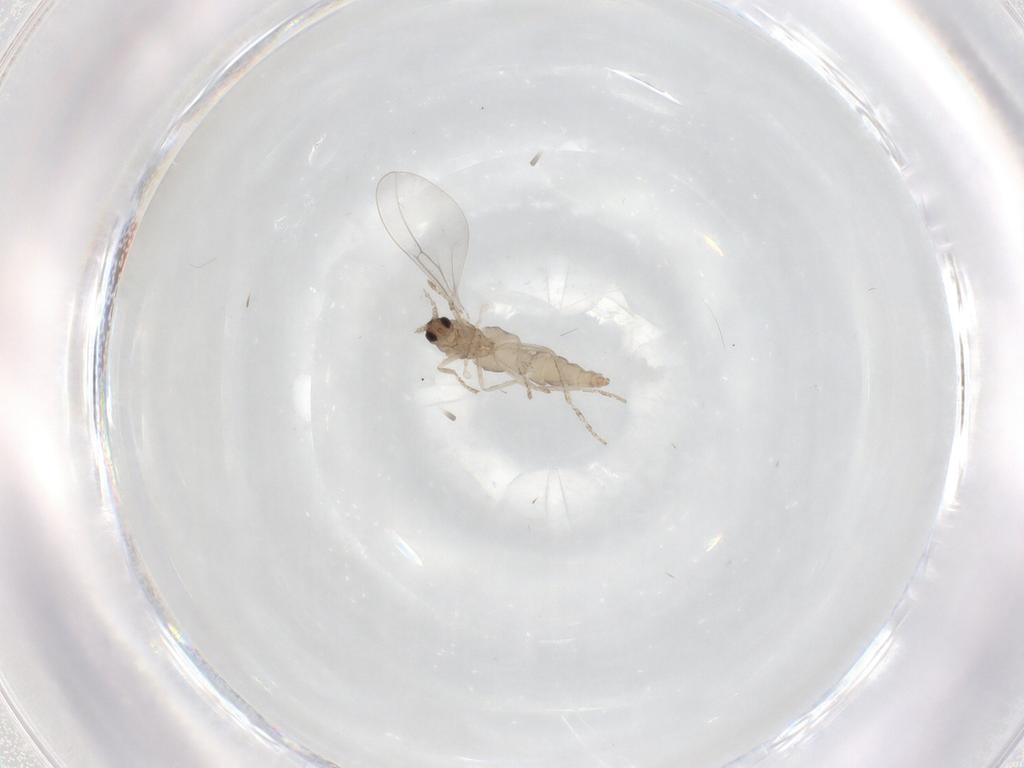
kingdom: Animalia
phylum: Arthropoda
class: Insecta
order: Diptera
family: Cecidomyiidae
